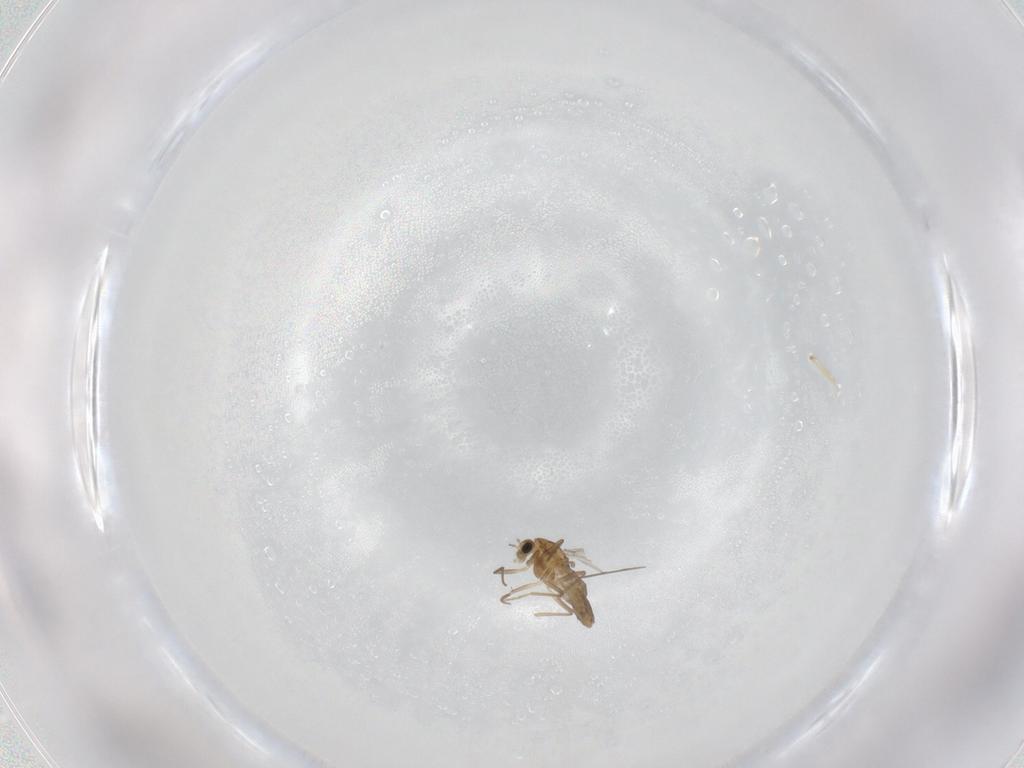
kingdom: Animalia
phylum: Arthropoda
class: Insecta
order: Diptera
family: Chironomidae
